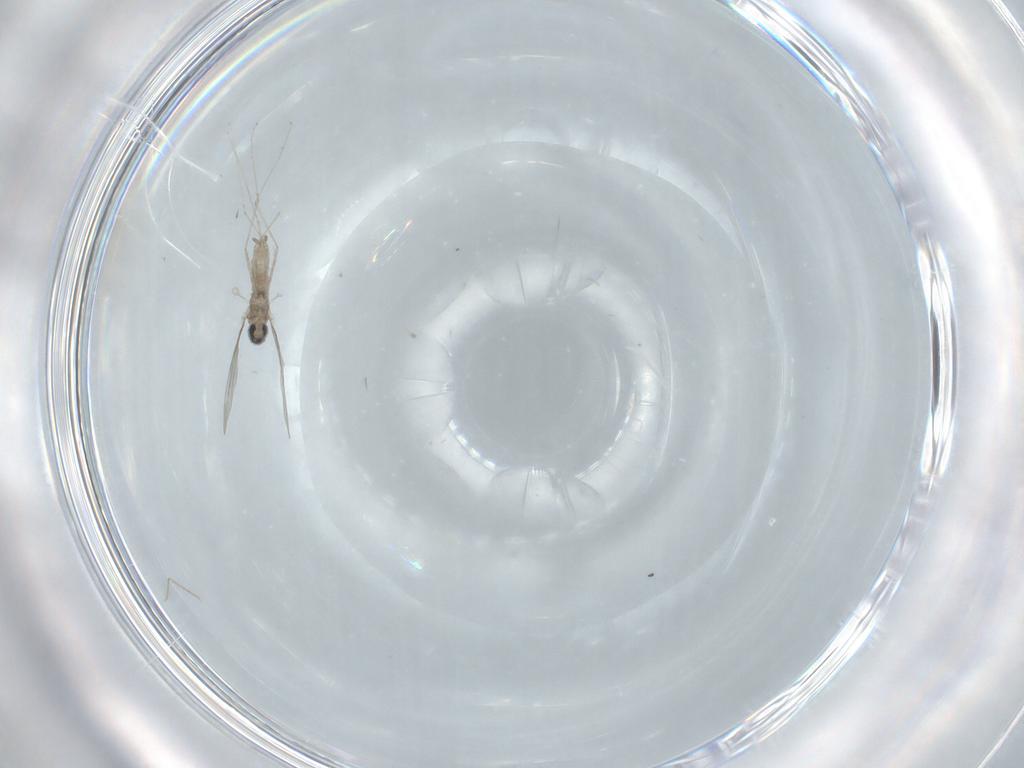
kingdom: Animalia
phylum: Arthropoda
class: Insecta
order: Diptera
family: Cecidomyiidae
